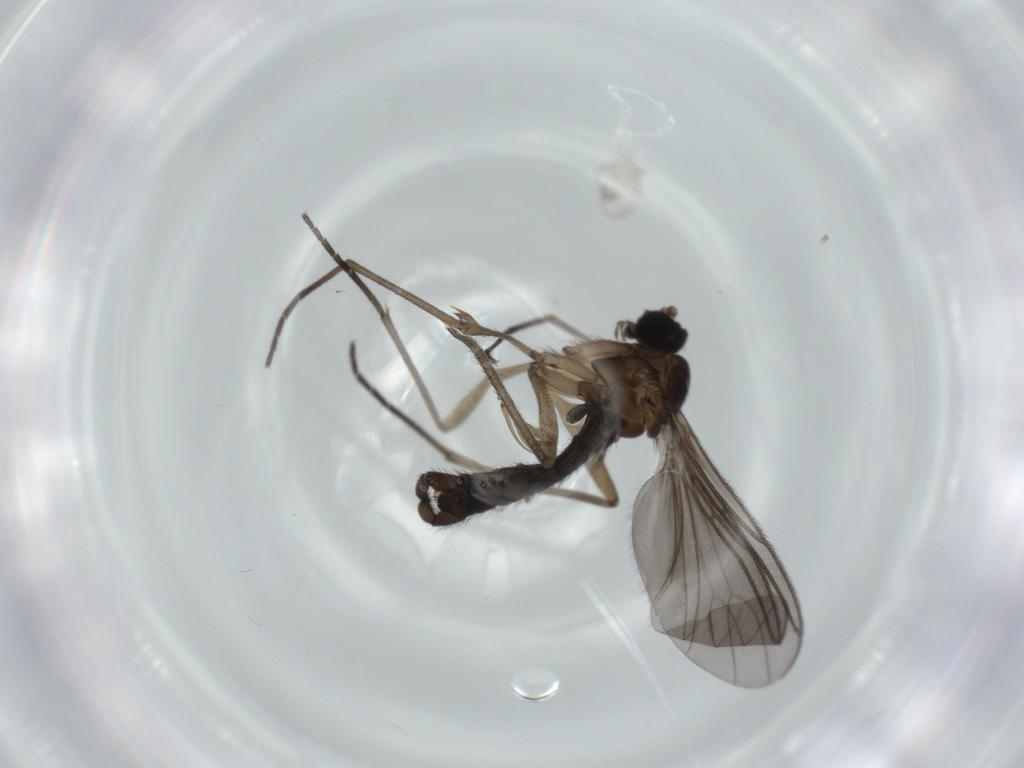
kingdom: Animalia
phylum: Arthropoda
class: Insecta
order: Diptera
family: Sciaridae
